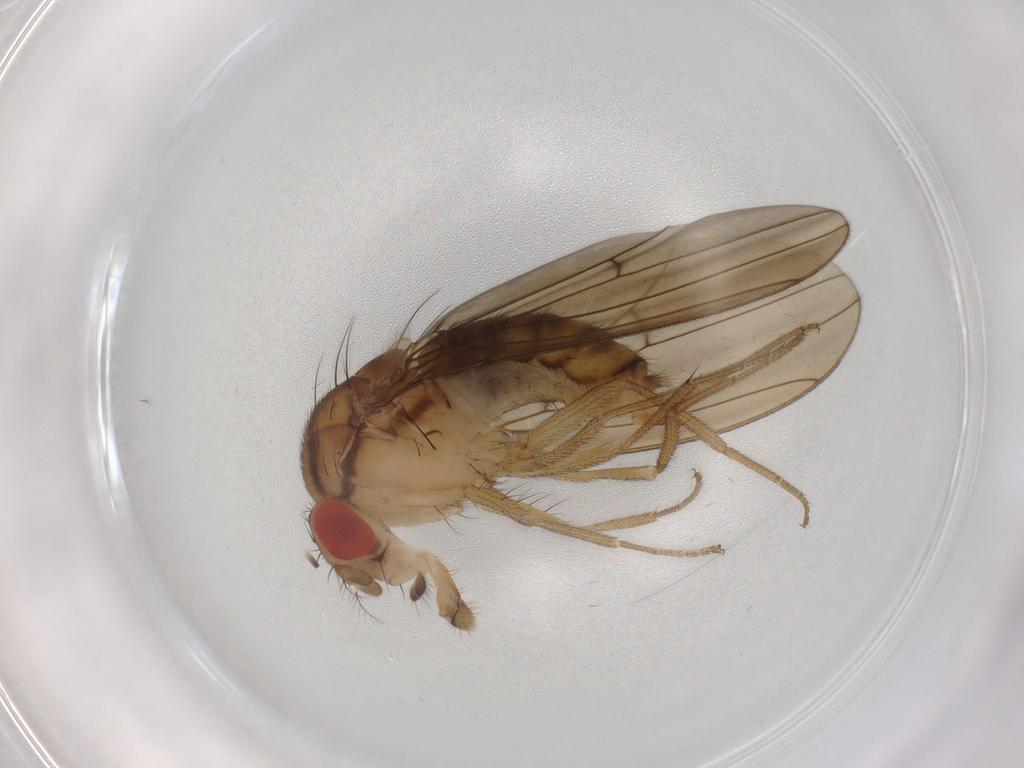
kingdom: Animalia
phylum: Arthropoda
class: Insecta
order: Diptera
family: Drosophilidae
